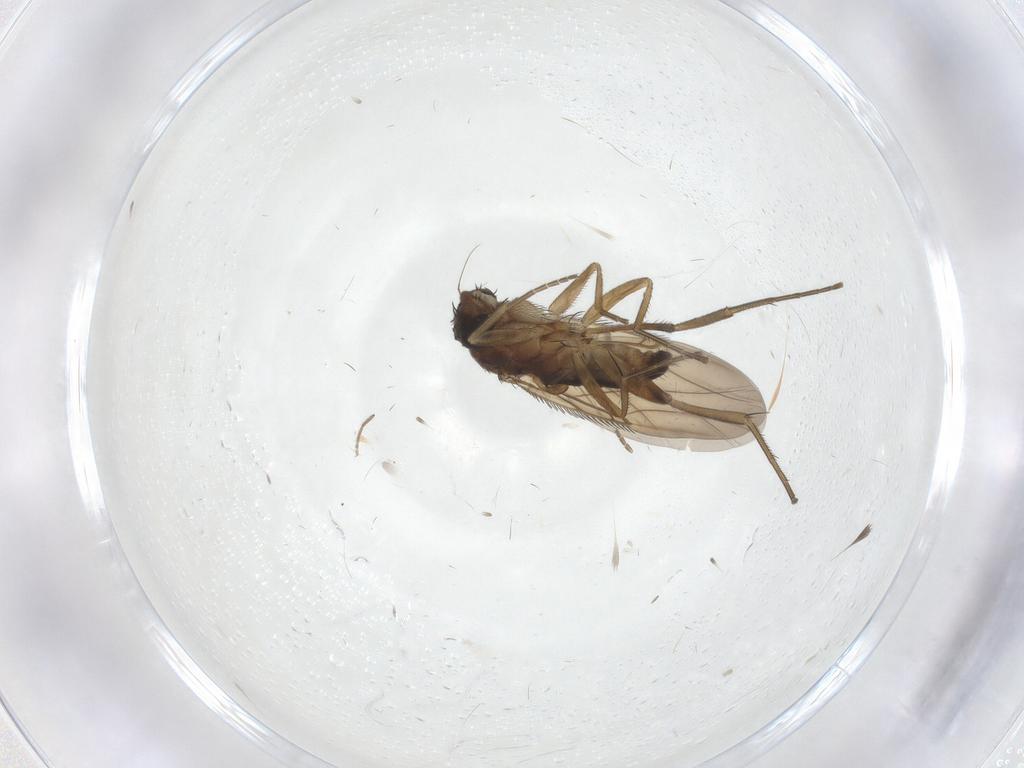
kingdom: Animalia
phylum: Arthropoda
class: Insecta
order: Diptera
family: Phoridae
